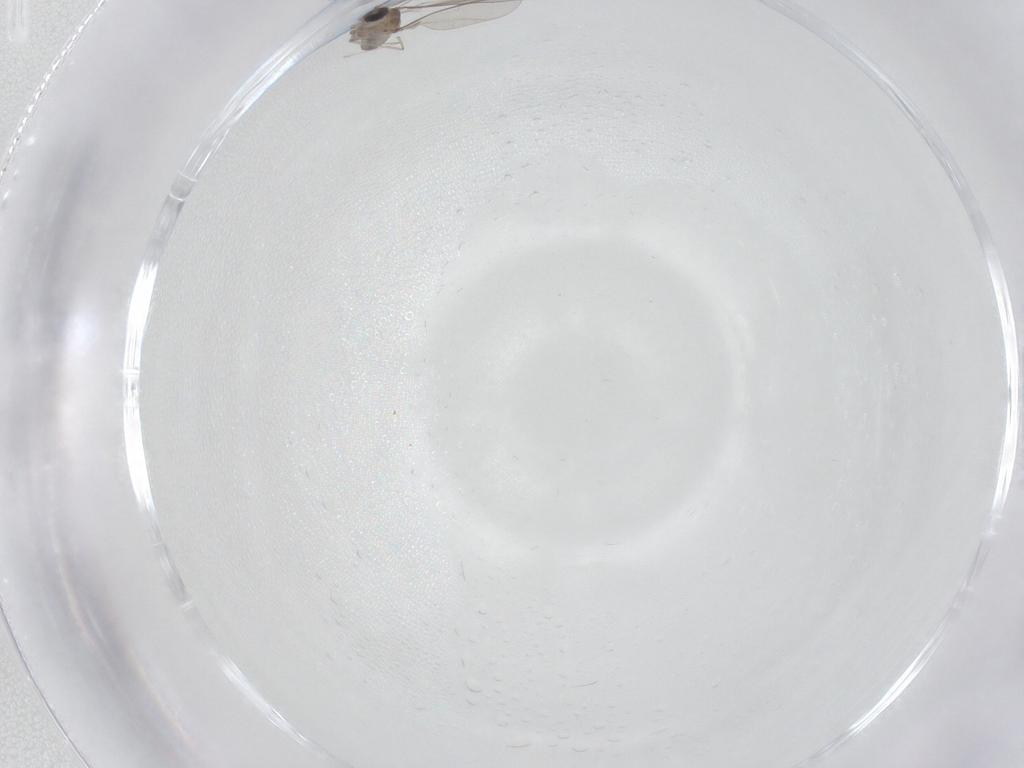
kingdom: Animalia
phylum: Arthropoda
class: Insecta
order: Diptera
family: Cecidomyiidae
